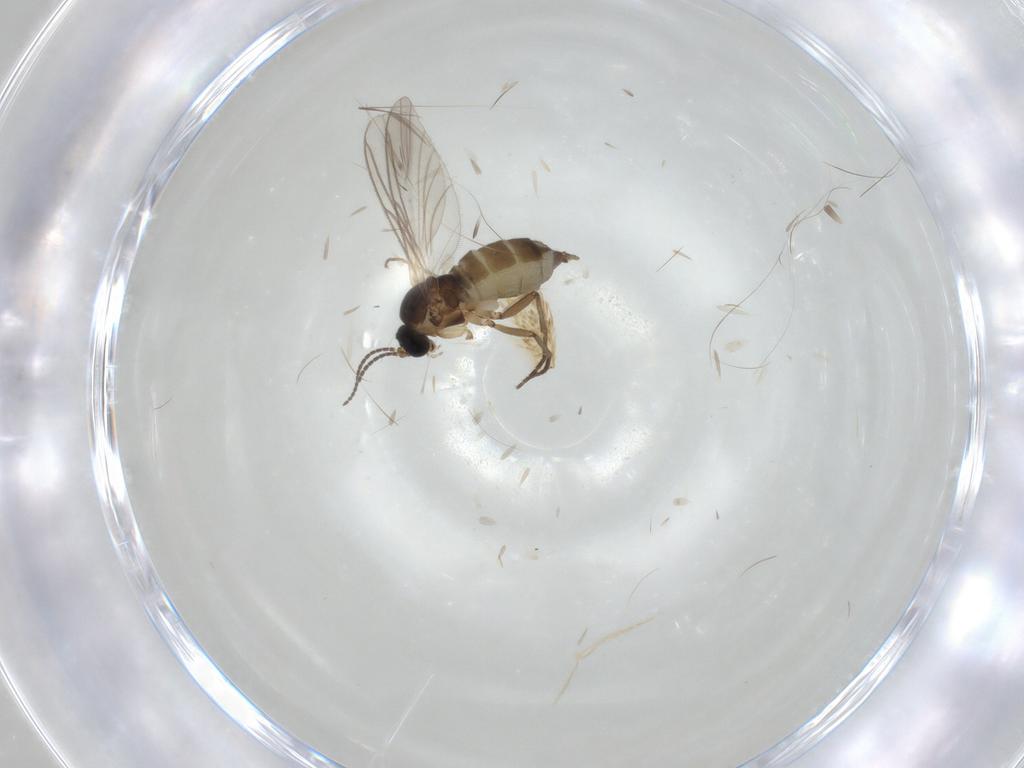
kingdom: Animalia
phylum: Arthropoda
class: Insecta
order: Diptera
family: Chironomidae
